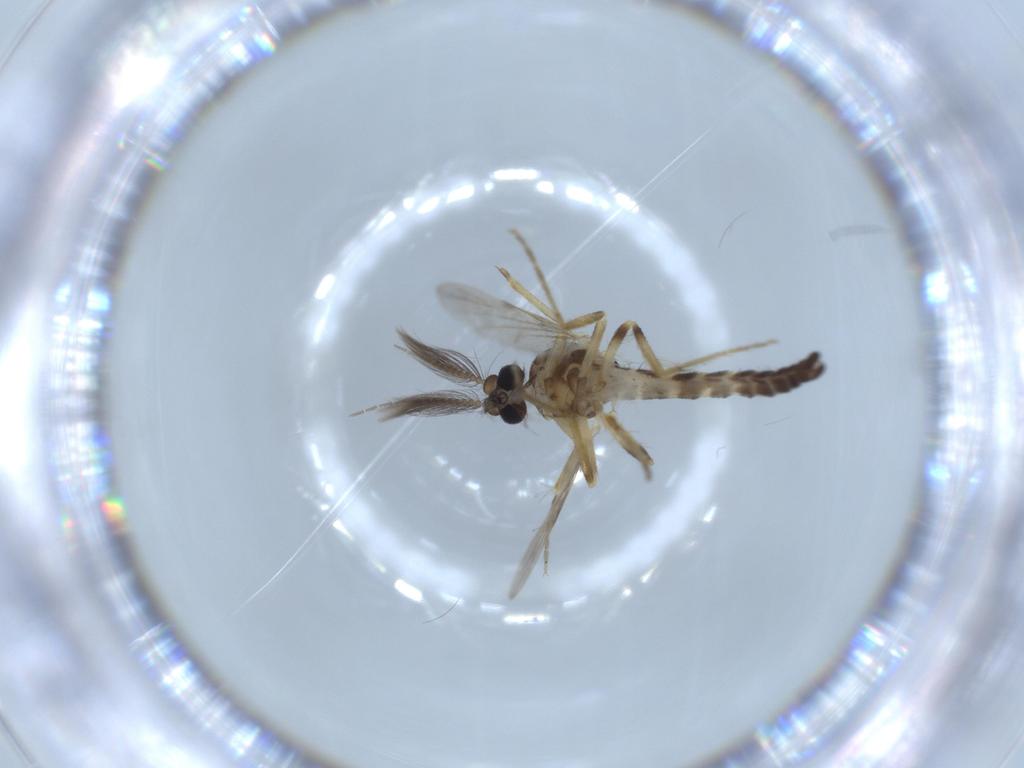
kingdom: Animalia
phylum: Arthropoda
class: Insecta
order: Diptera
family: Ceratopogonidae
